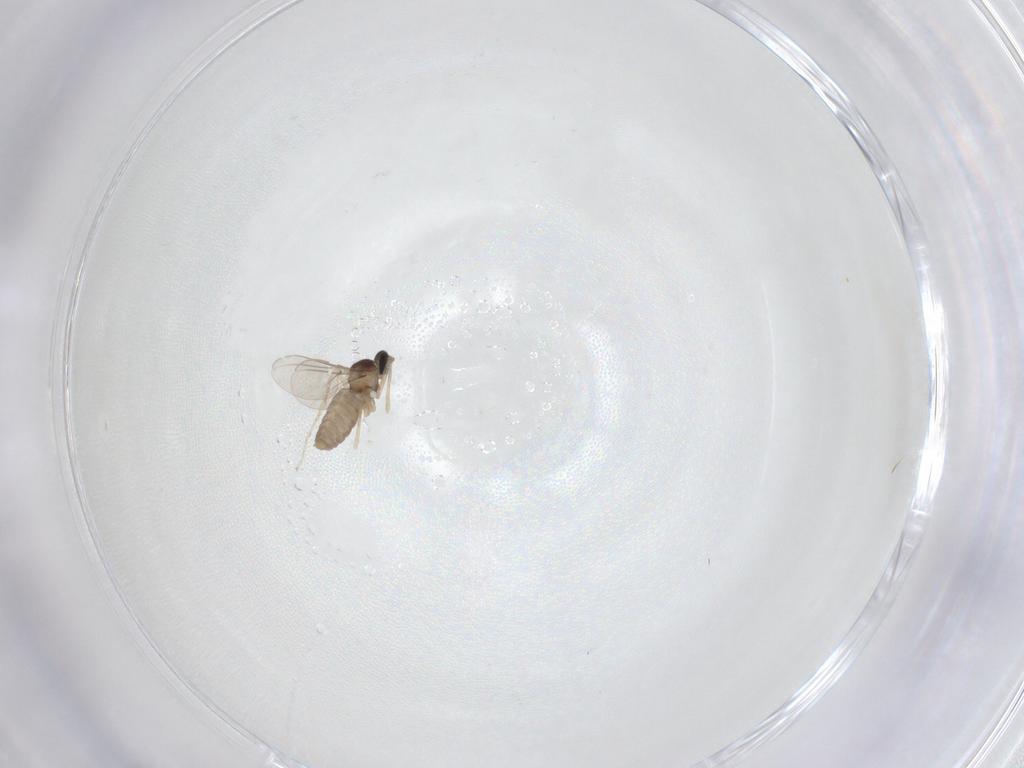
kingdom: Animalia
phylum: Arthropoda
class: Insecta
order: Diptera
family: Cecidomyiidae
